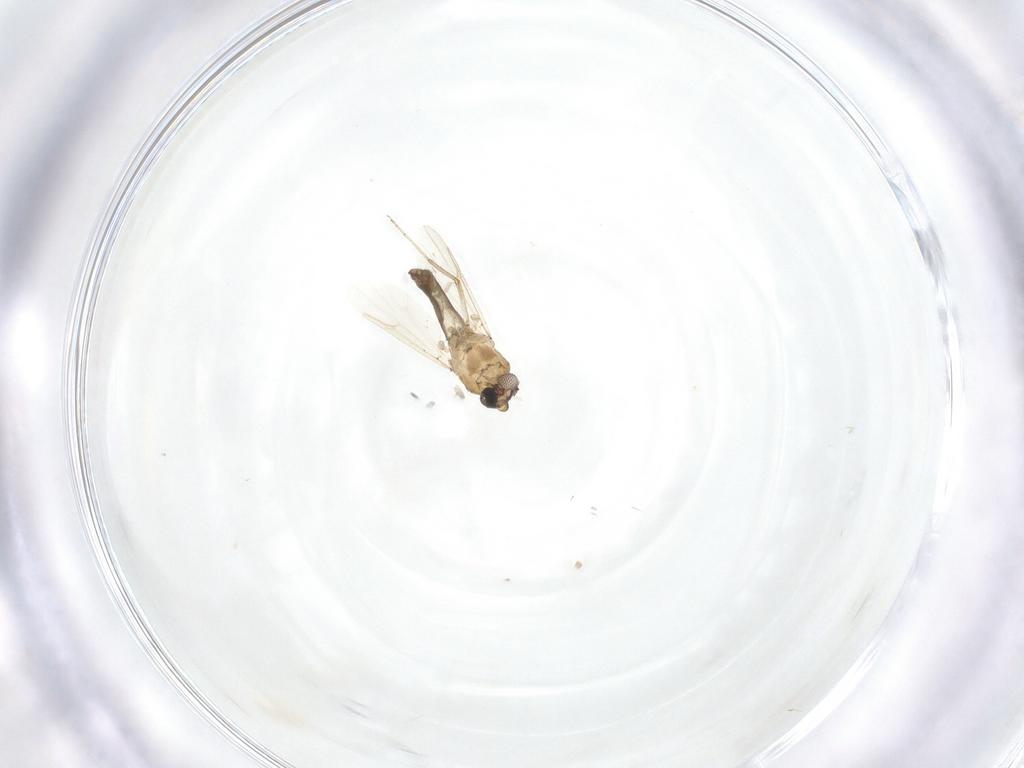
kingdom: Animalia
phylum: Arthropoda
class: Insecta
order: Diptera
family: Ceratopogonidae
